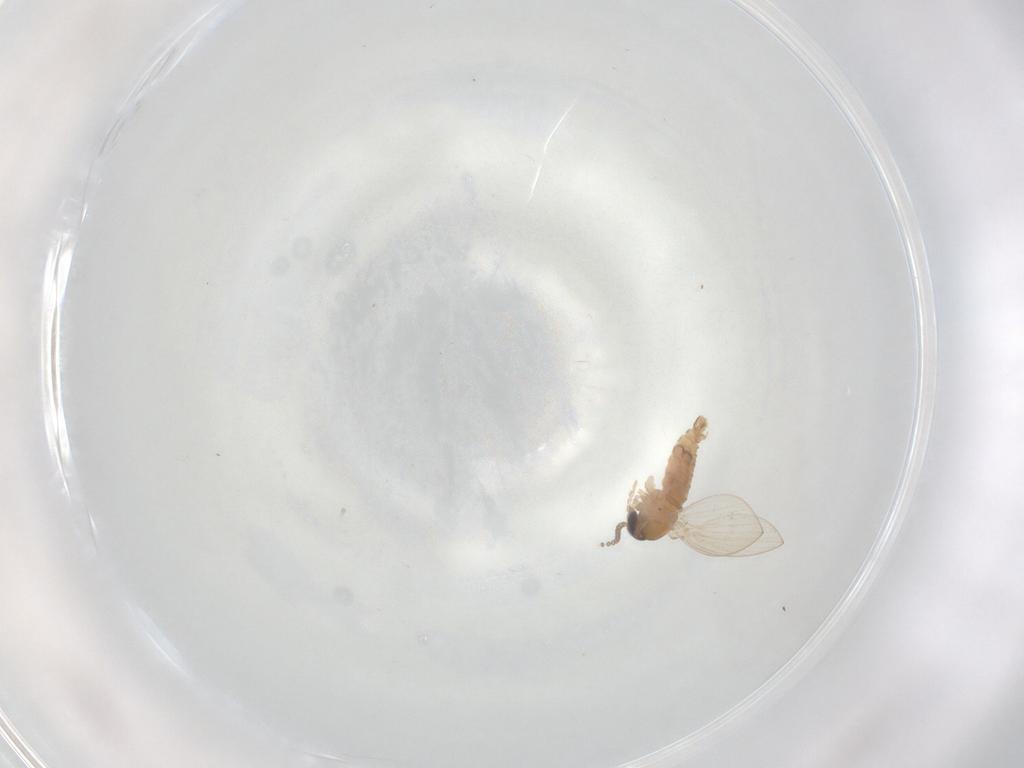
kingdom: Animalia
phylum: Arthropoda
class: Insecta
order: Diptera
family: Psychodidae
